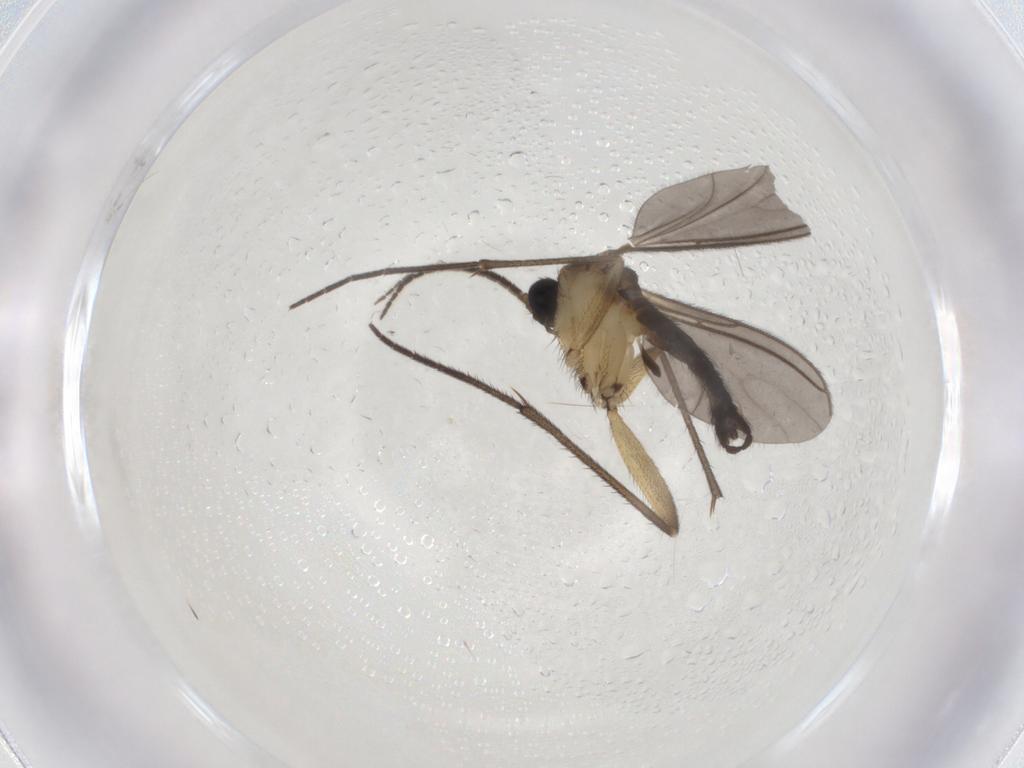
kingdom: Animalia
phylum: Arthropoda
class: Insecta
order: Diptera
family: Sciaridae
